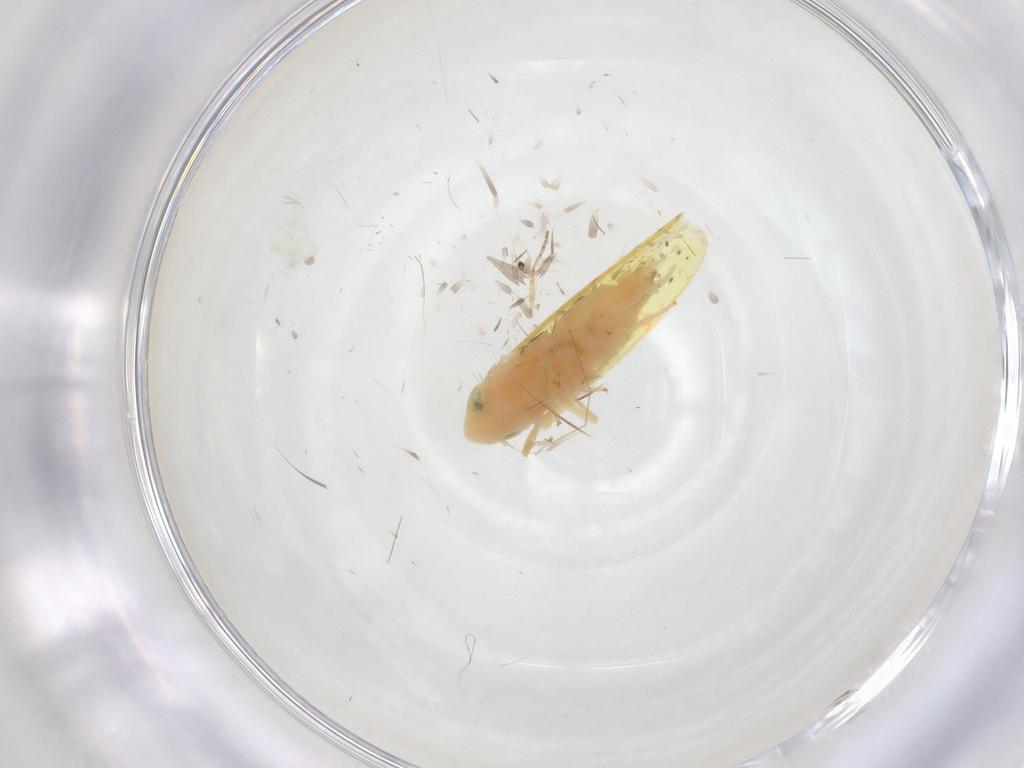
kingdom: Animalia
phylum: Arthropoda
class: Insecta
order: Hemiptera
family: Cicadellidae
